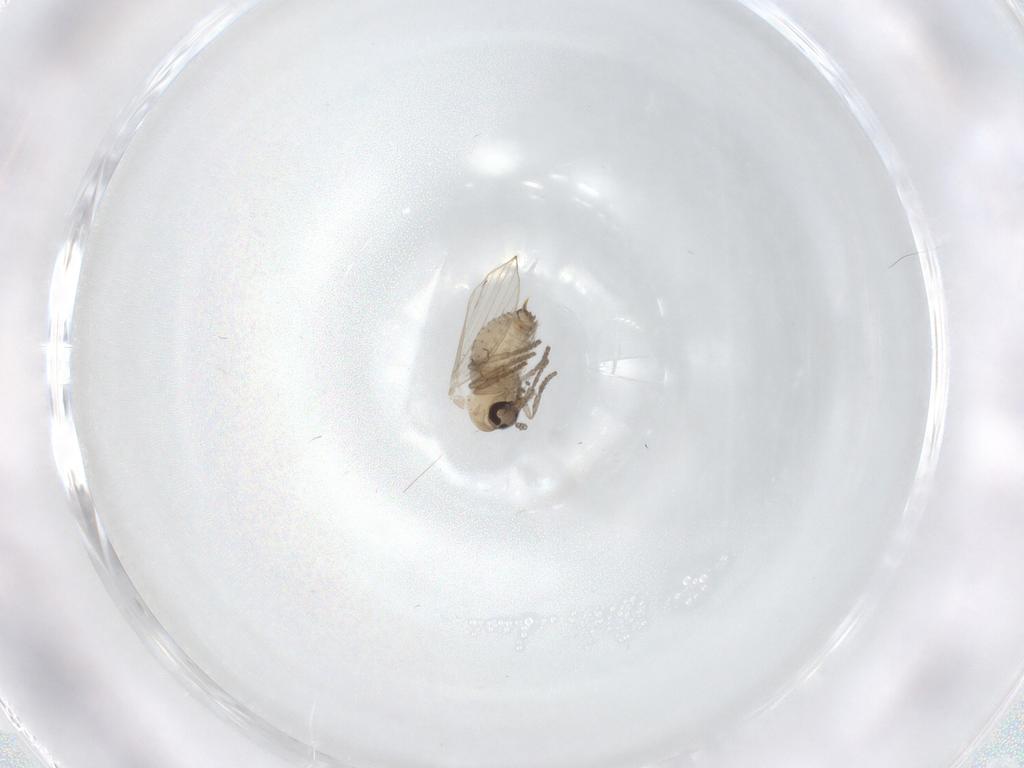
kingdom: Animalia
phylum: Arthropoda
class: Insecta
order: Diptera
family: Psychodidae
